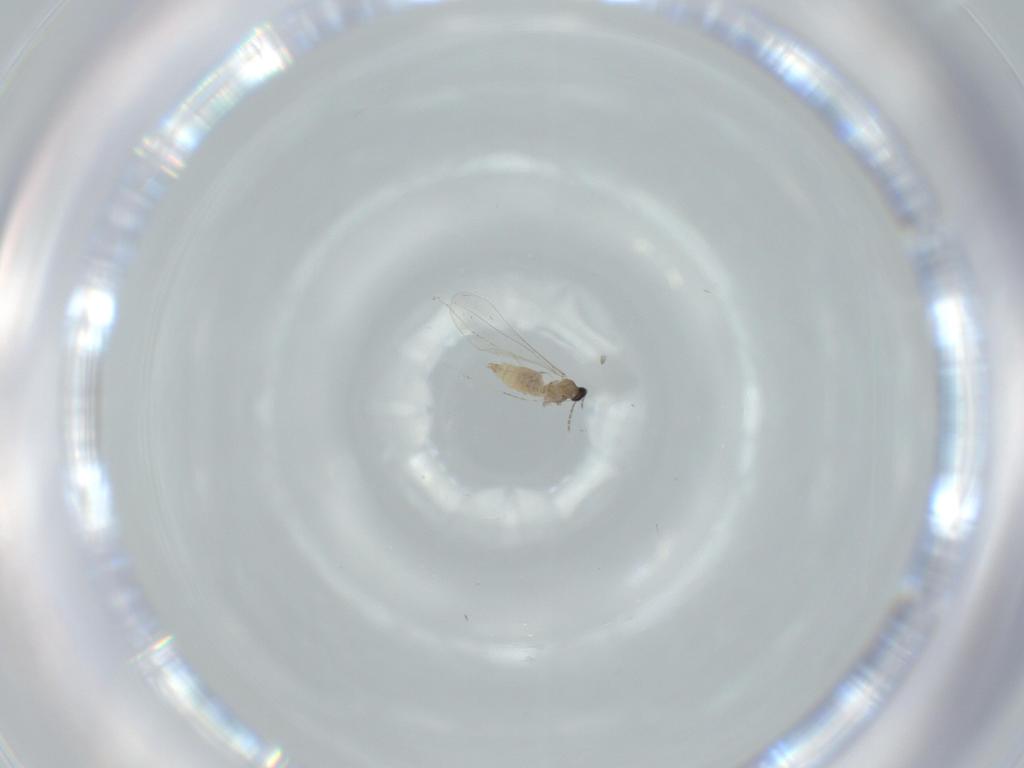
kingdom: Animalia
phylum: Arthropoda
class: Insecta
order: Diptera
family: Cecidomyiidae
